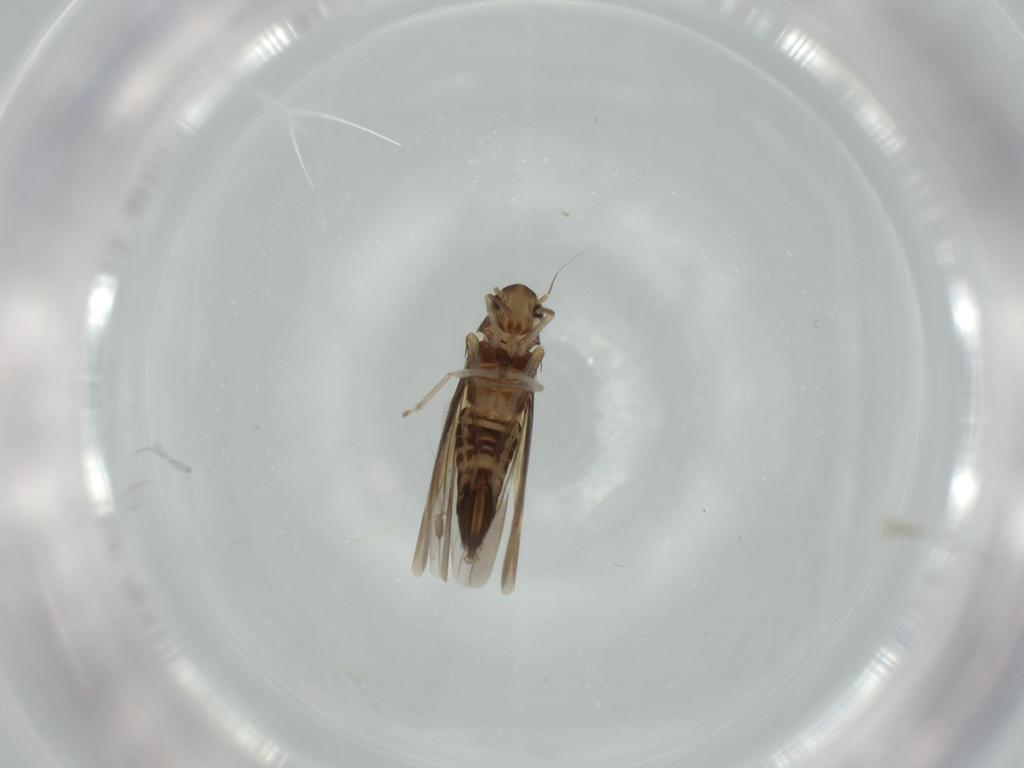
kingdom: Animalia
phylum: Arthropoda
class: Insecta
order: Hemiptera
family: Cicadellidae
